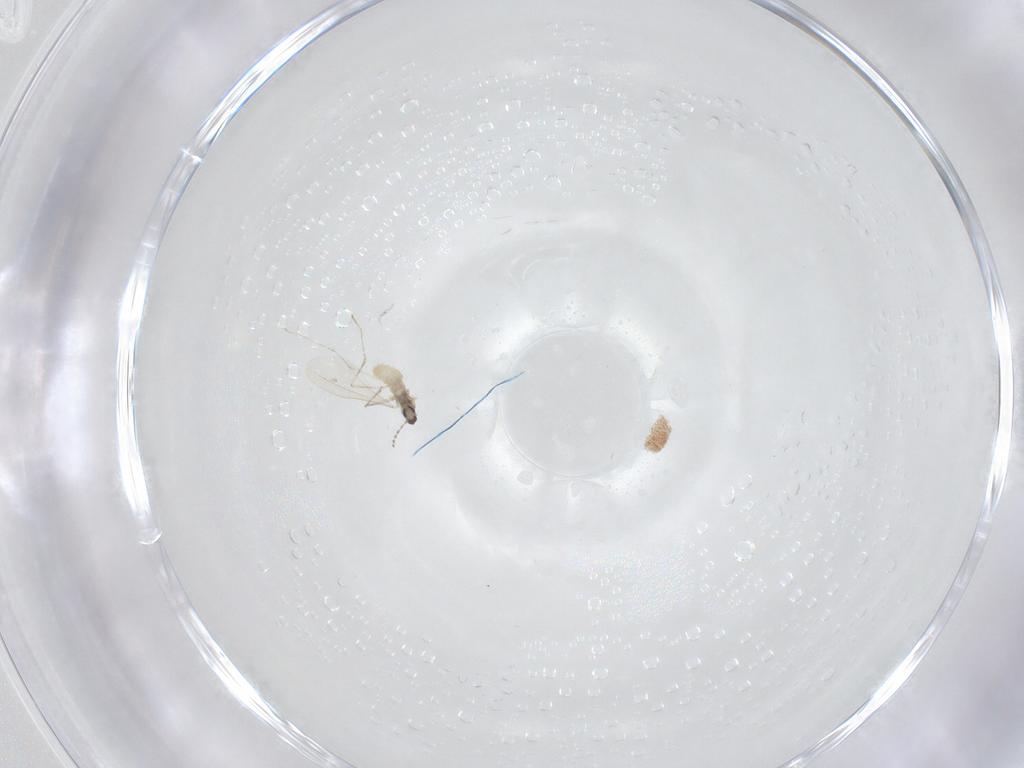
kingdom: Animalia
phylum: Arthropoda
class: Insecta
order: Diptera
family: Cecidomyiidae
